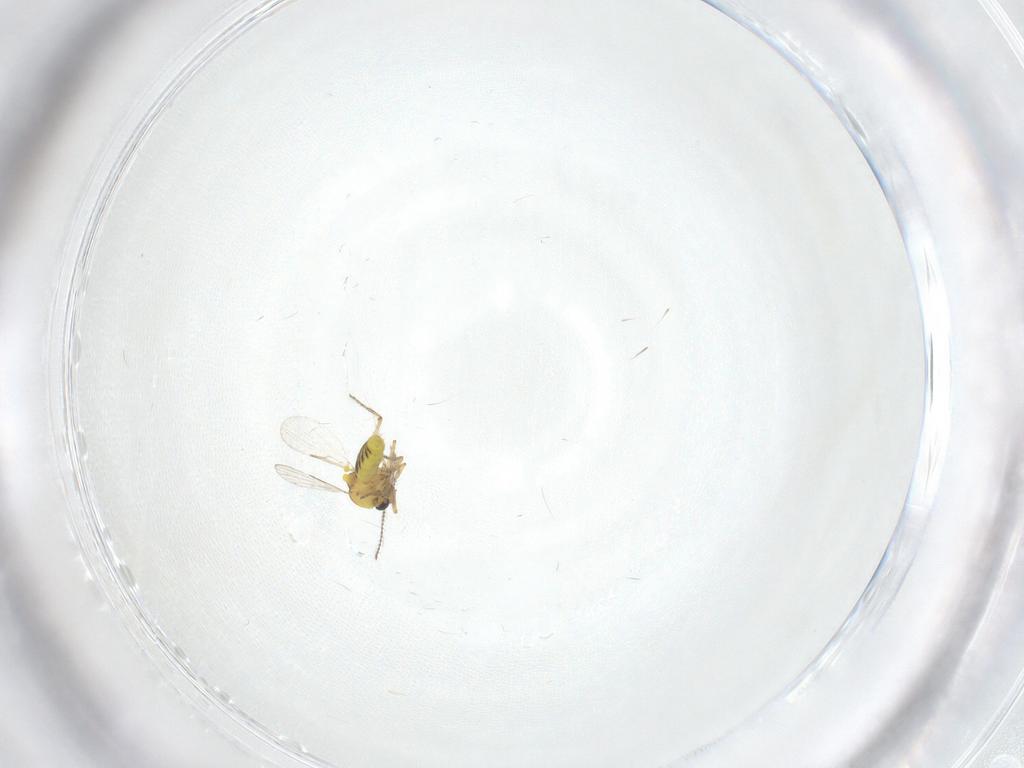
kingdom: Animalia
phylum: Arthropoda
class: Insecta
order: Diptera
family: Ceratopogonidae
